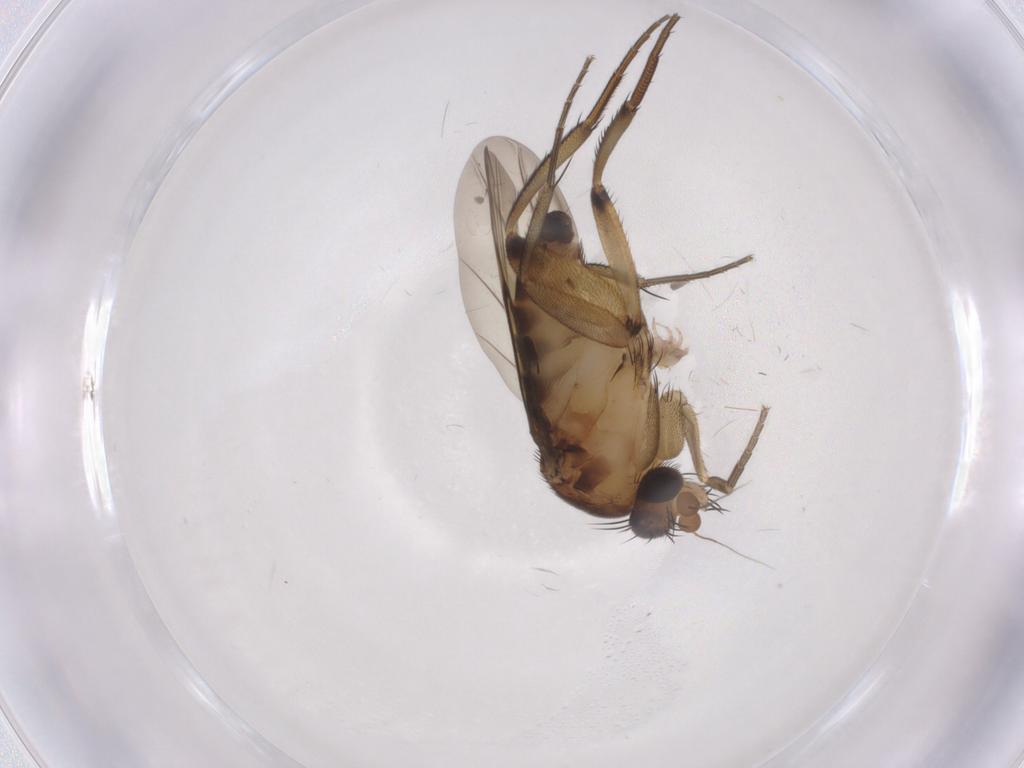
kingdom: Animalia
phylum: Arthropoda
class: Insecta
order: Diptera
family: Phoridae
